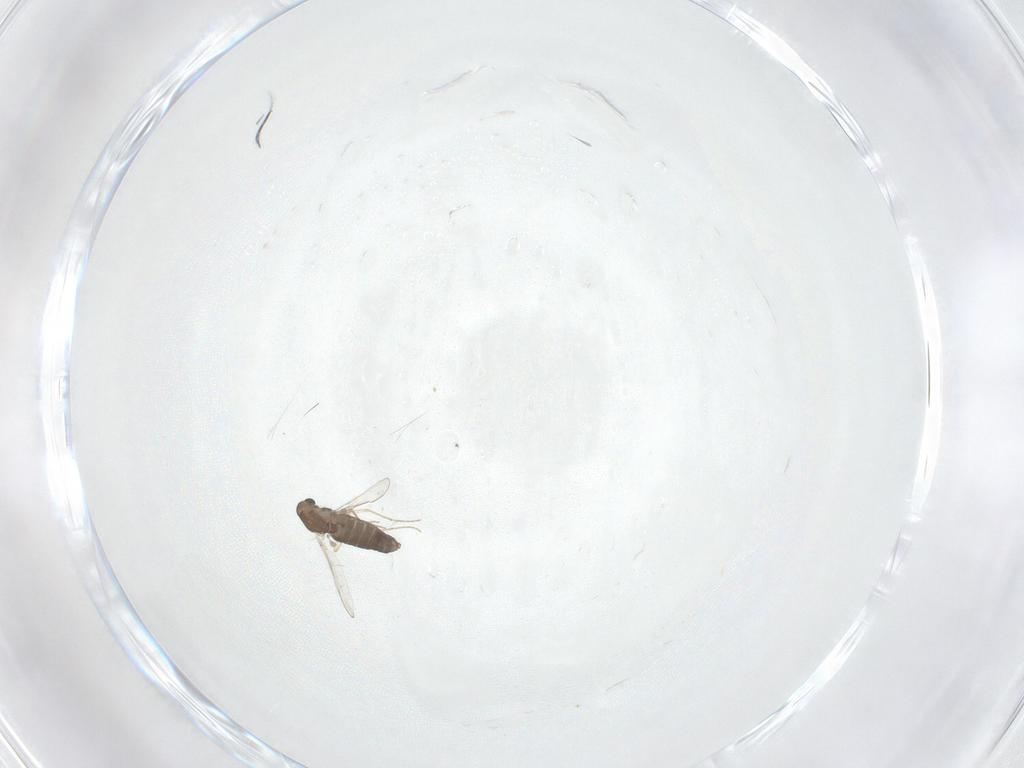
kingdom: Animalia
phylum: Arthropoda
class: Insecta
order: Diptera
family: Chironomidae
